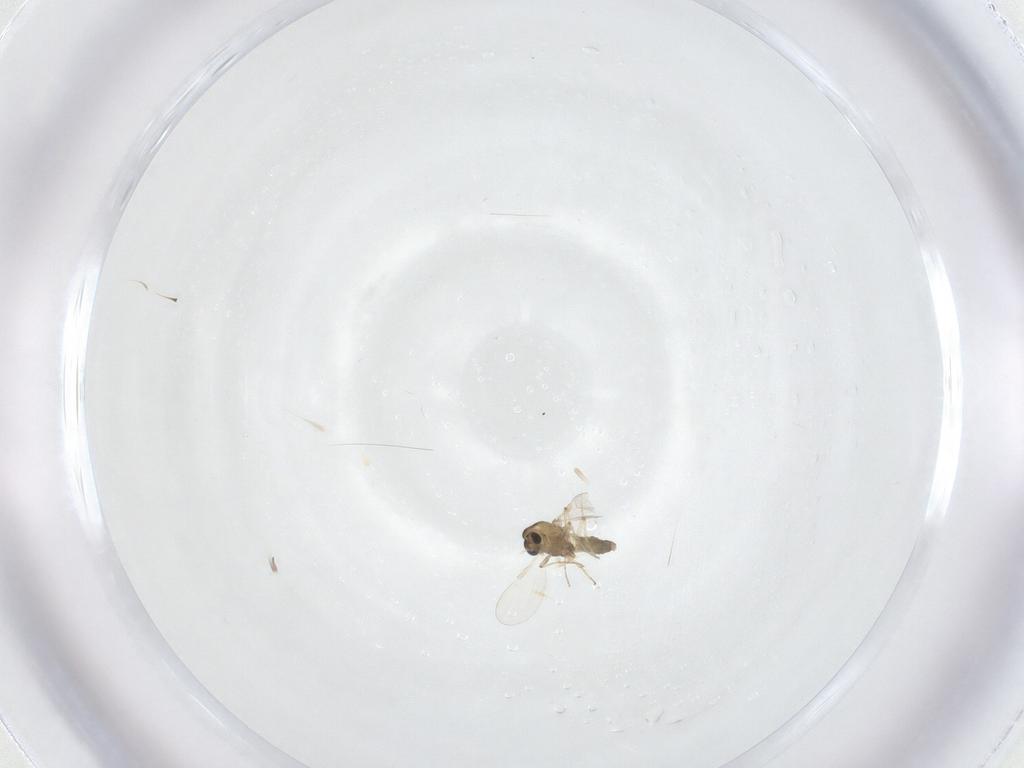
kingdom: Animalia
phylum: Arthropoda
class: Insecta
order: Diptera
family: Chironomidae
